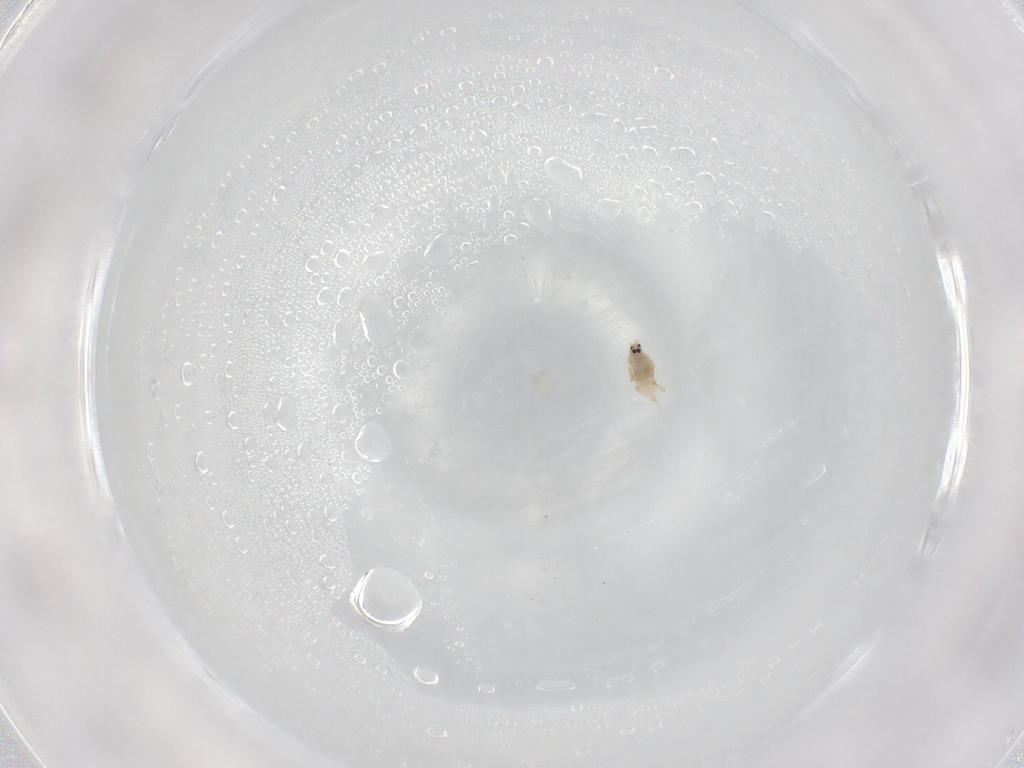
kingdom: Animalia
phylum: Arthropoda
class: Insecta
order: Hemiptera
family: Diaspididae
